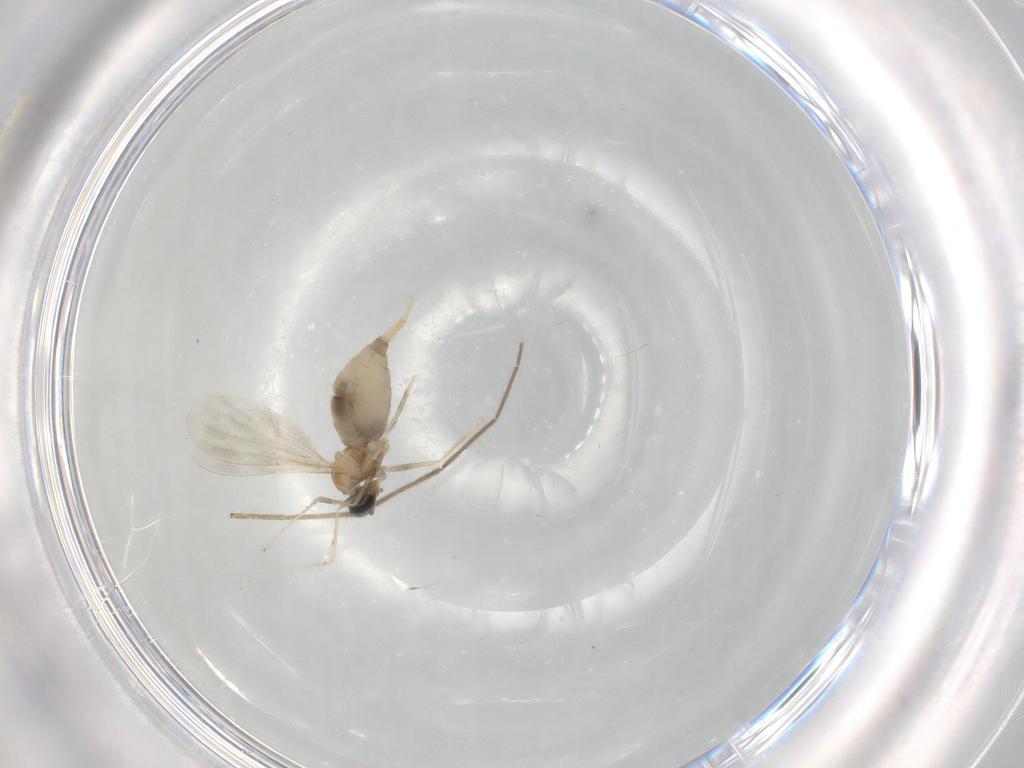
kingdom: Animalia
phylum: Arthropoda
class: Insecta
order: Diptera
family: Cecidomyiidae
